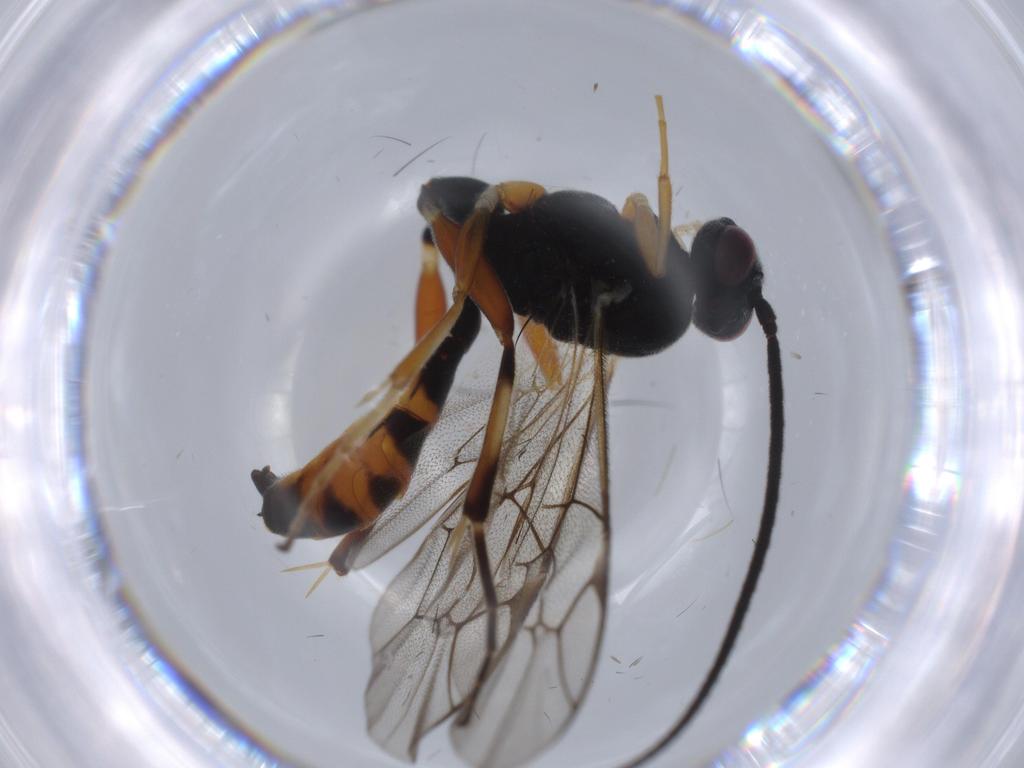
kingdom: Animalia
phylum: Arthropoda
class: Insecta
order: Hymenoptera
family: Ichneumonidae
